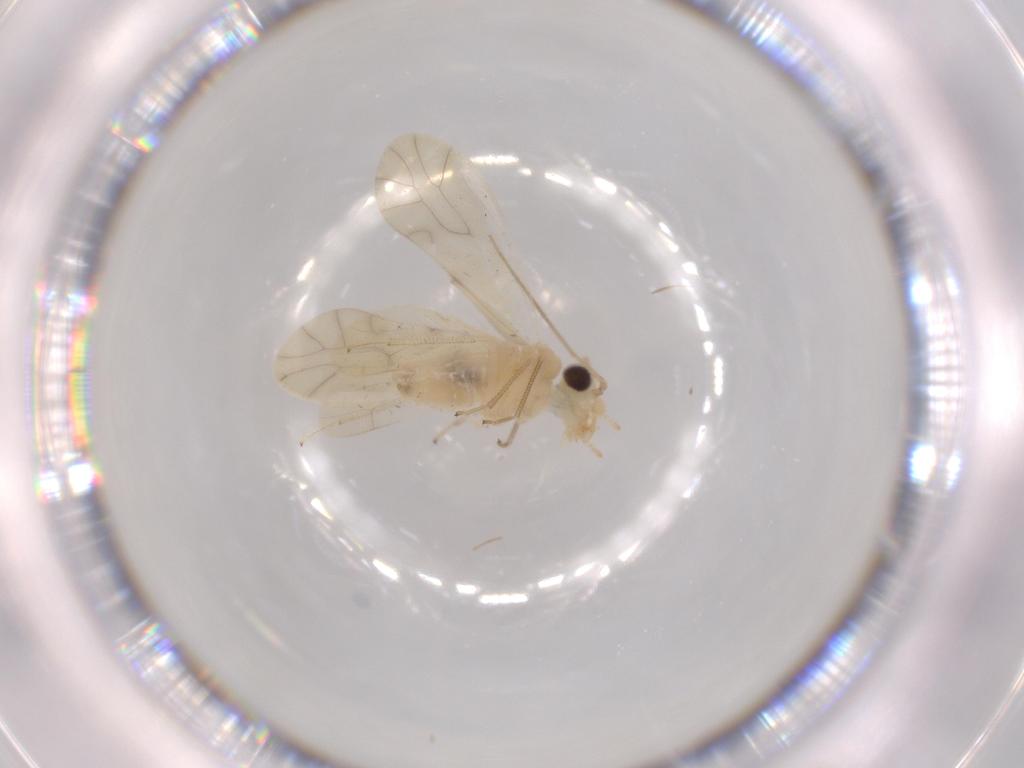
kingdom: Animalia
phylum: Arthropoda
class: Insecta
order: Psocodea
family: Caeciliusidae
